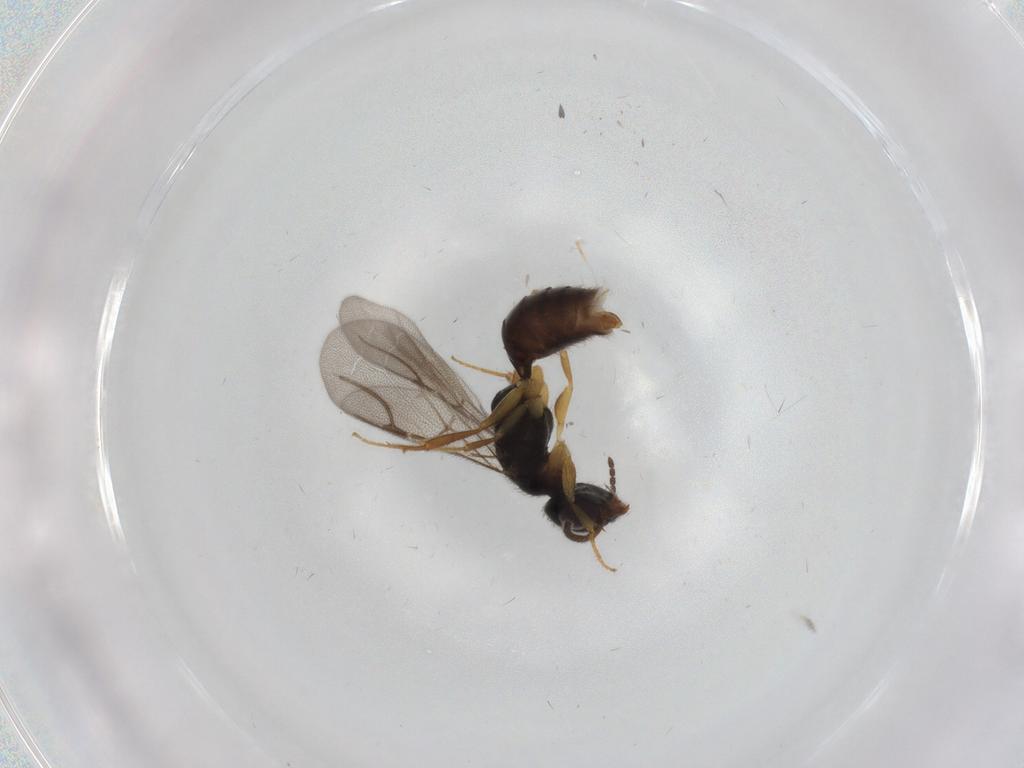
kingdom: Animalia
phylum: Arthropoda
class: Insecta
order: Hymenoptera
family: Bethylidae
